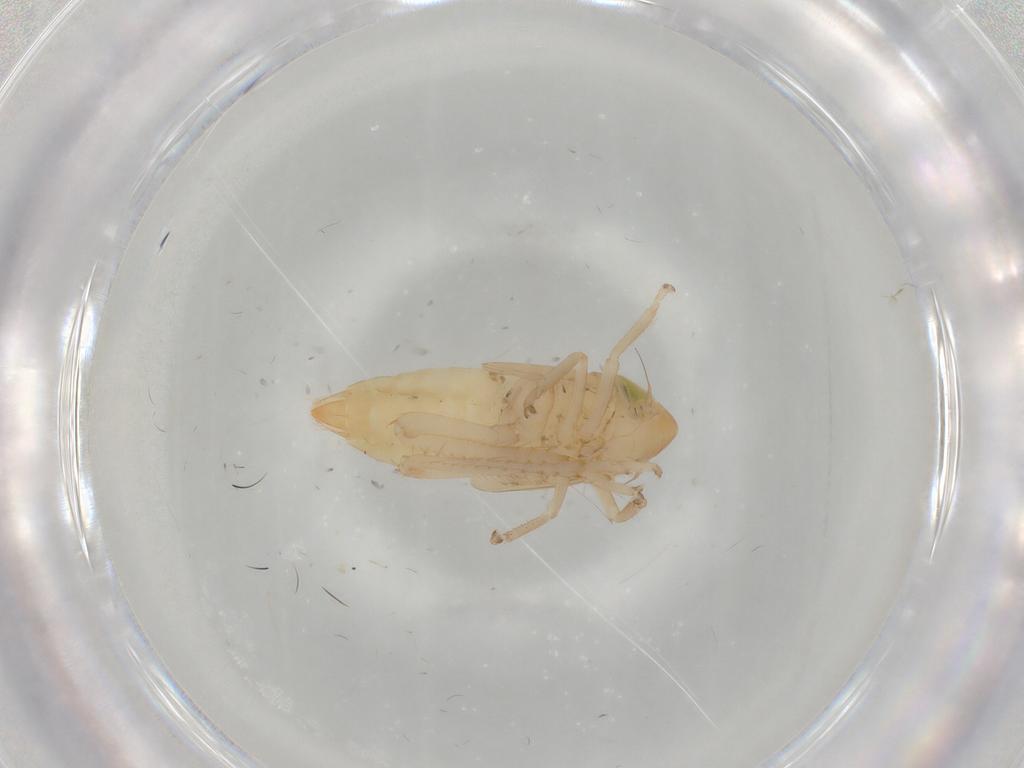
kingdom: Animalia
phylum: Arthropoda
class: Insecta
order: Hemiptera
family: Cicadellidae
